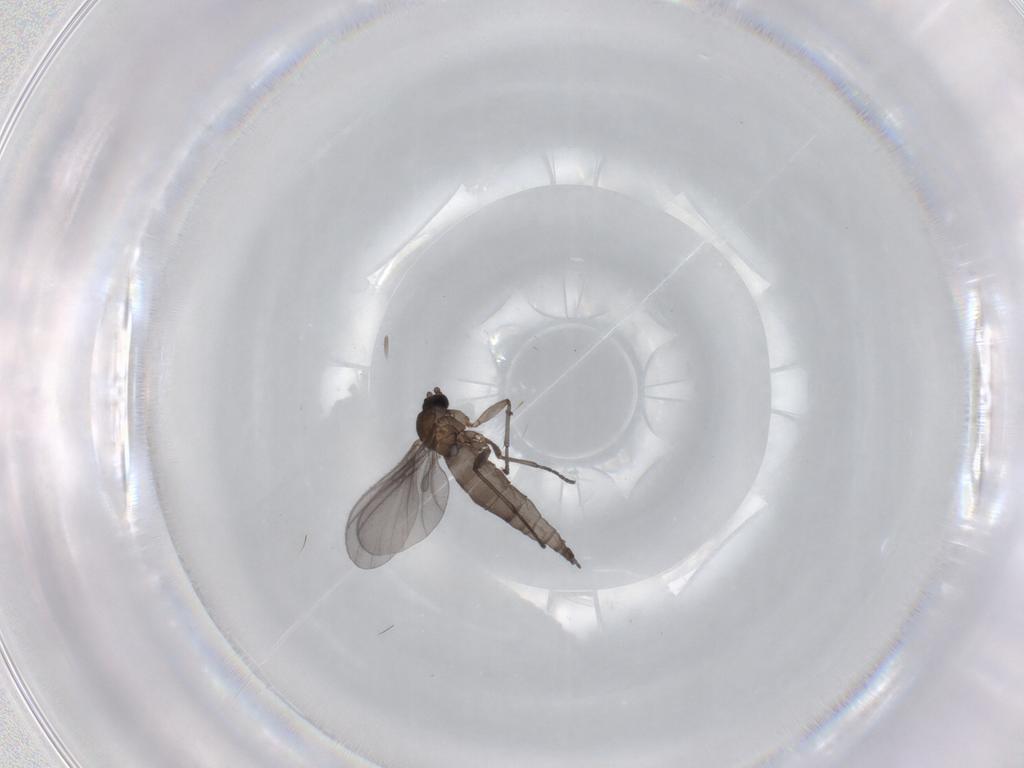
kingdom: Animalia
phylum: Arthropoda
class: Insecta
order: Diptera
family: Sciaridae
